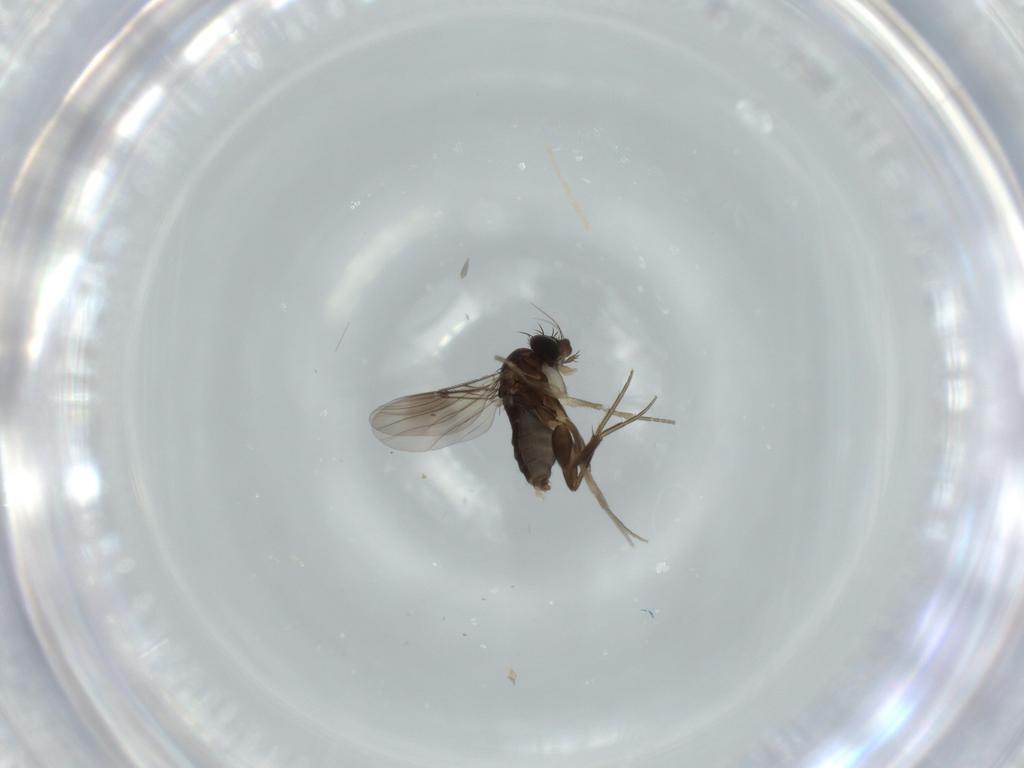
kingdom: Animalia
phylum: Arthropoda
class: Insecta
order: Diptera
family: Phoridae
